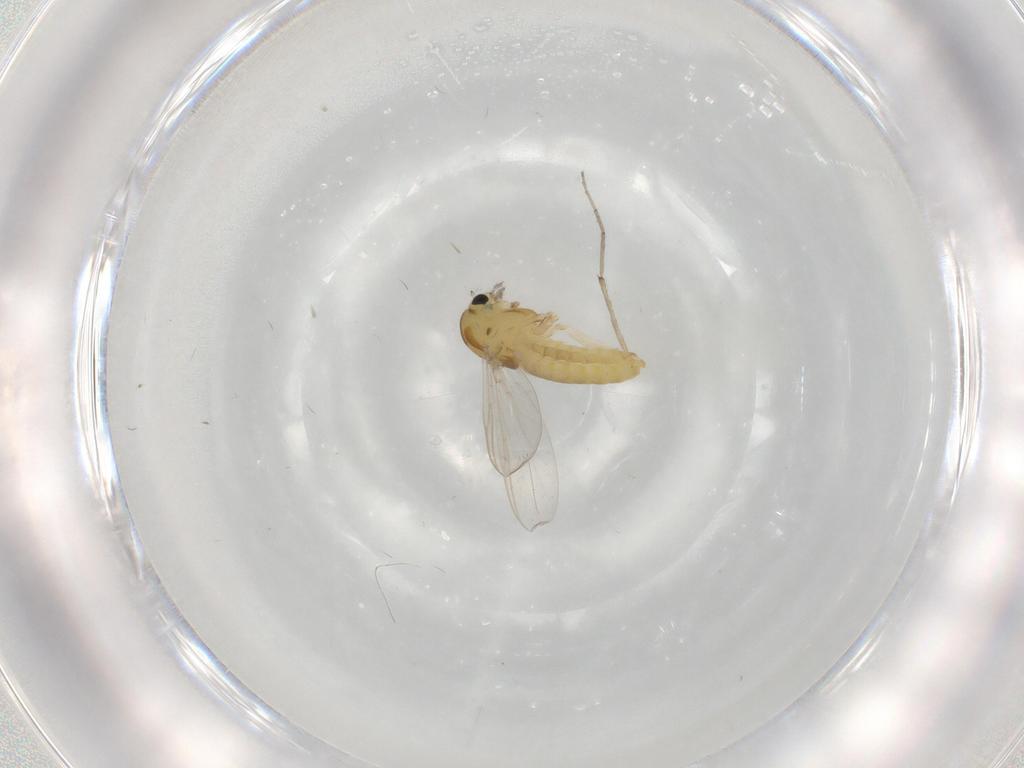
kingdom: Animalia
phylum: Arthropoda
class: Insecta
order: Diptera
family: Chironomidae
